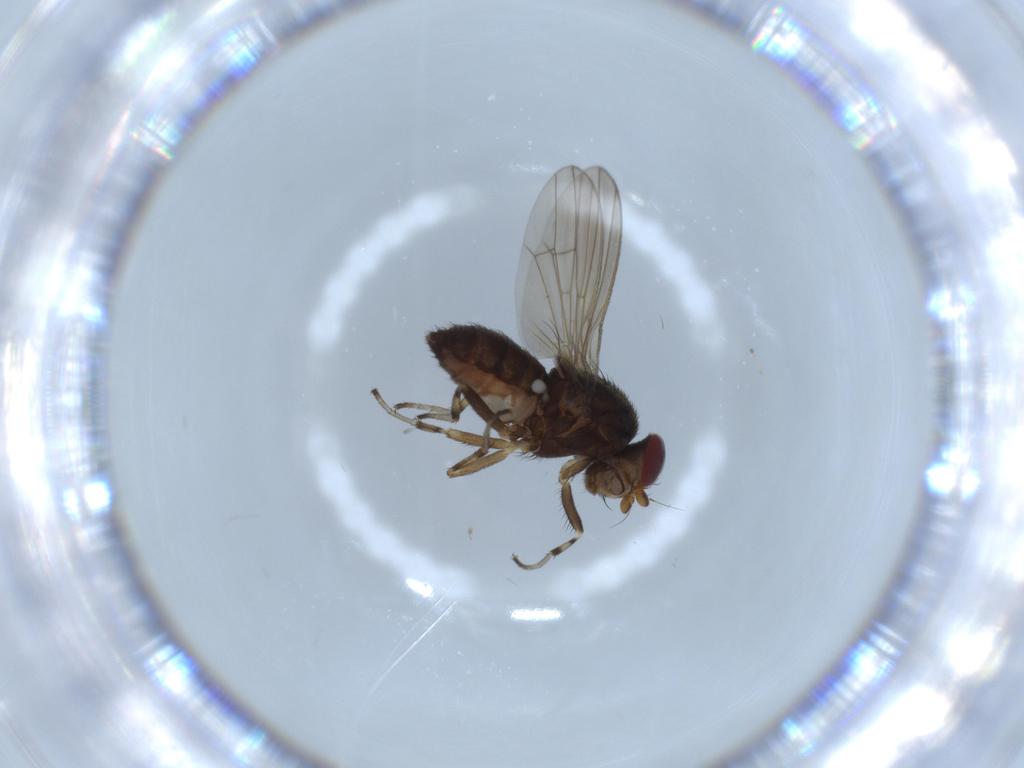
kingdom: Animalia
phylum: Arthropoda
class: Insecta
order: Diptera
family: Heleomyzidae
